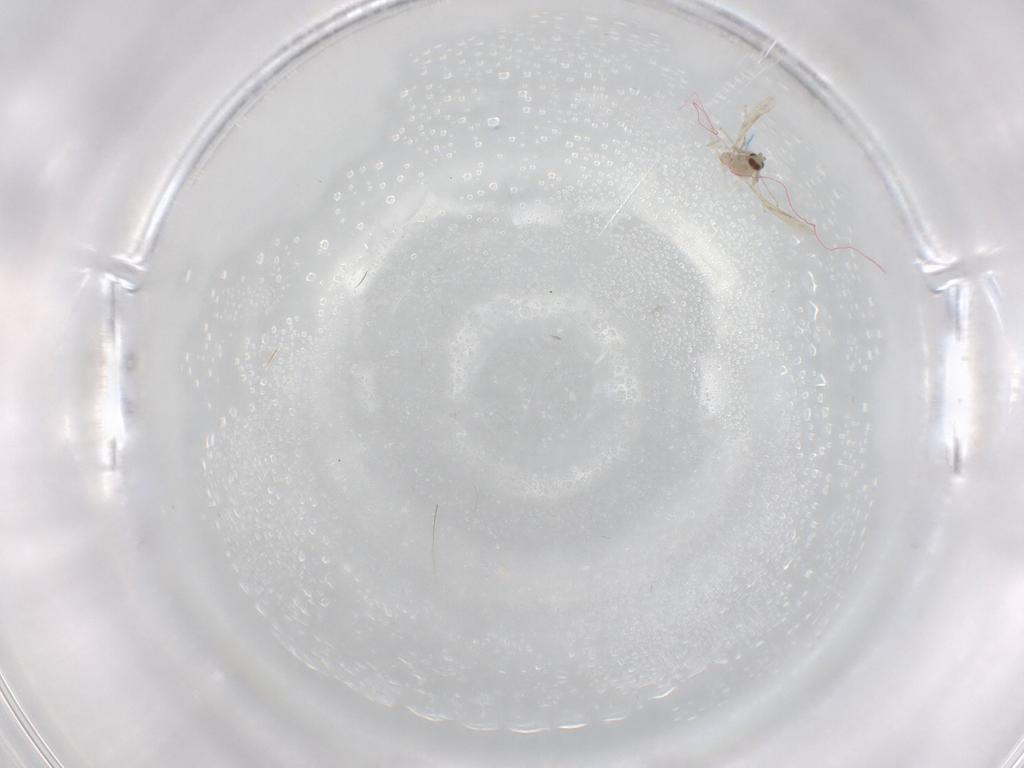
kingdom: Animalia
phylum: Arthropoda
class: Insecta
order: Diptera
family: Cecidomyiidae
